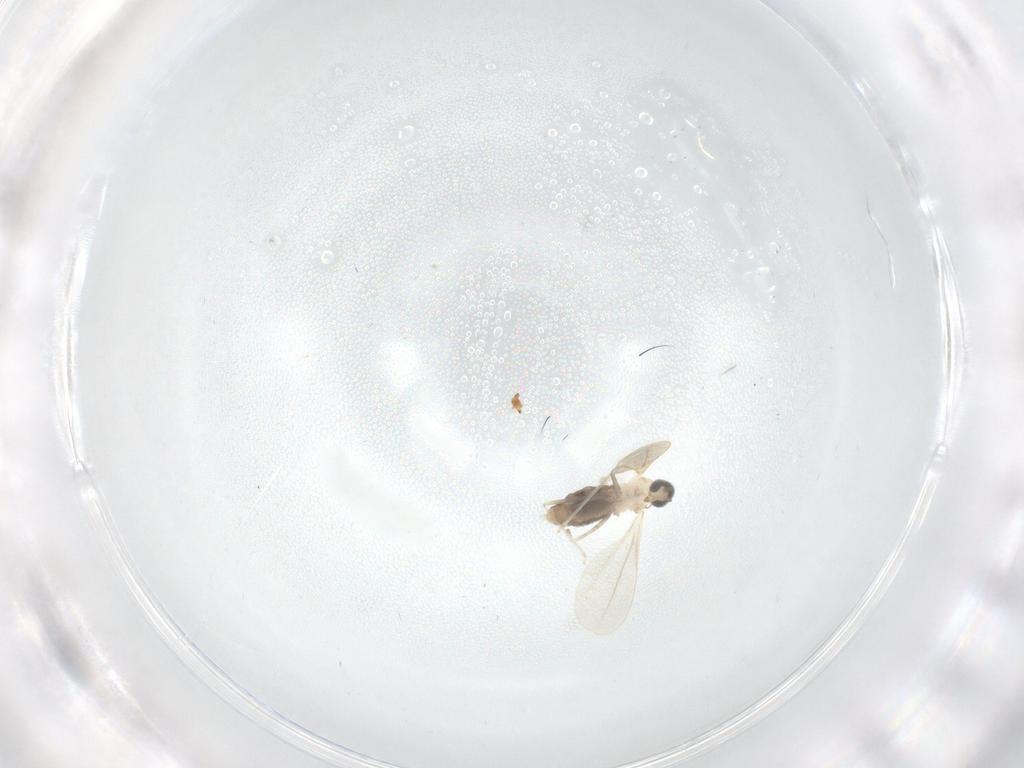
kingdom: Animalia
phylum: Arthropoda
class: Insecta
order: Diptera
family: Cecidomyiidae
